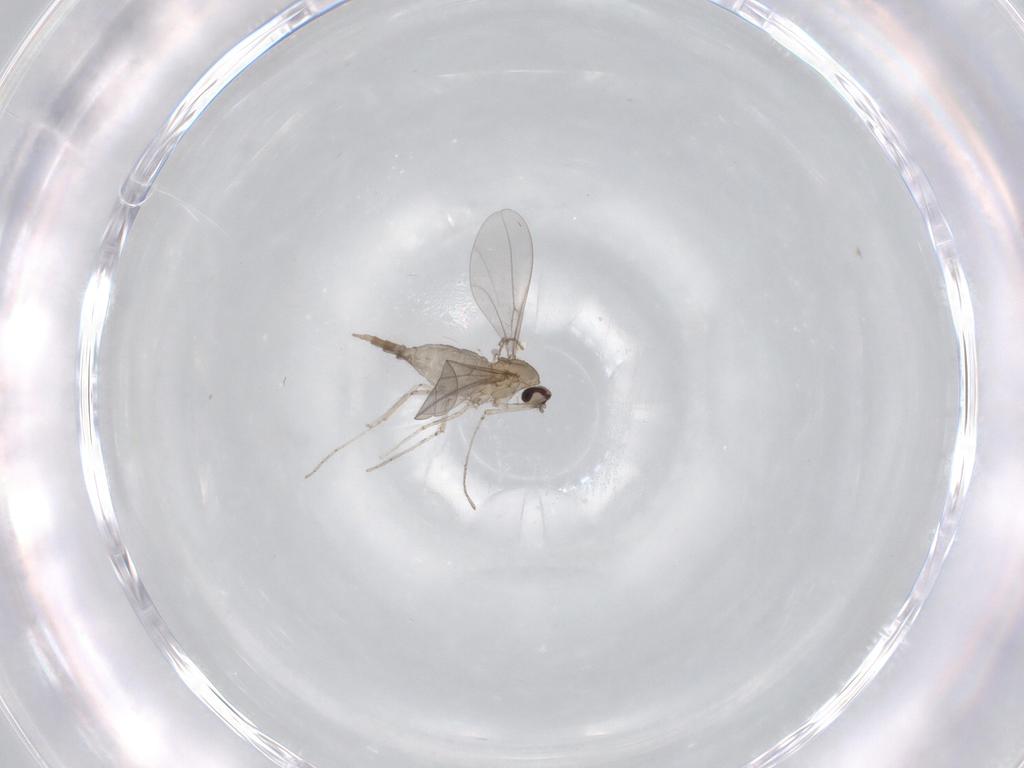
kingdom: Animalia
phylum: Arthropoda
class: Insecta
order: Diptera
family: Cecidomyiidae
